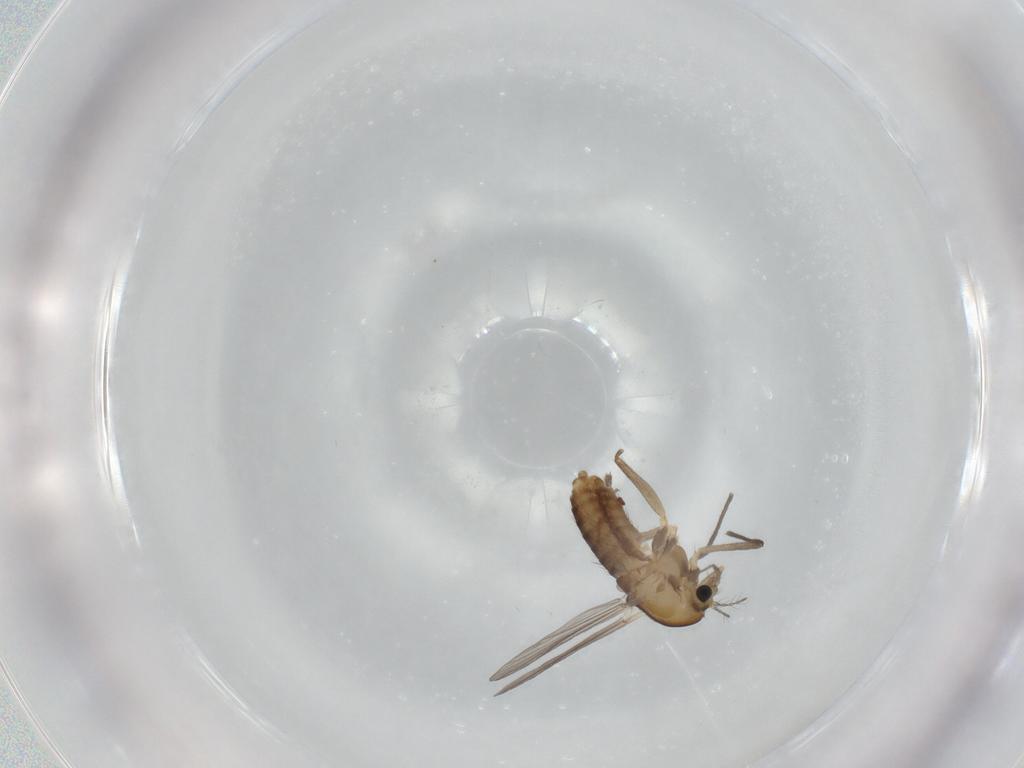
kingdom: Animalia
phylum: Arthropoda
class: Insecta
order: Diptera
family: Chironomidae
